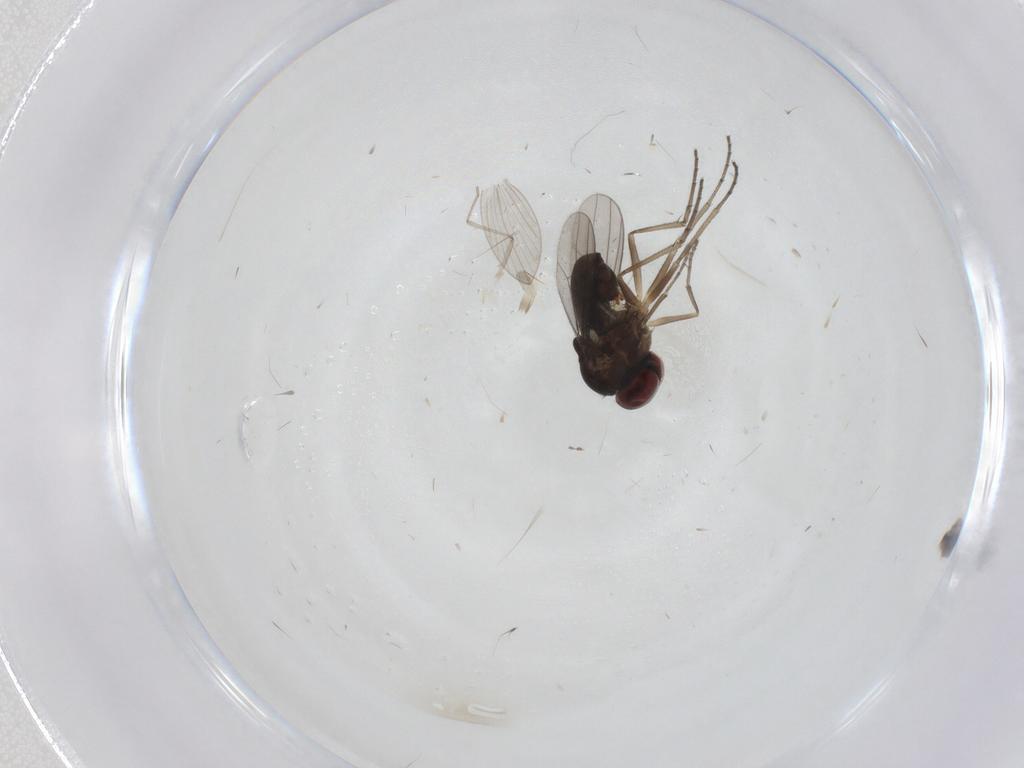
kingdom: Animalia
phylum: Arthropoda
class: Insecta
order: Diptera
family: Psychodidae
